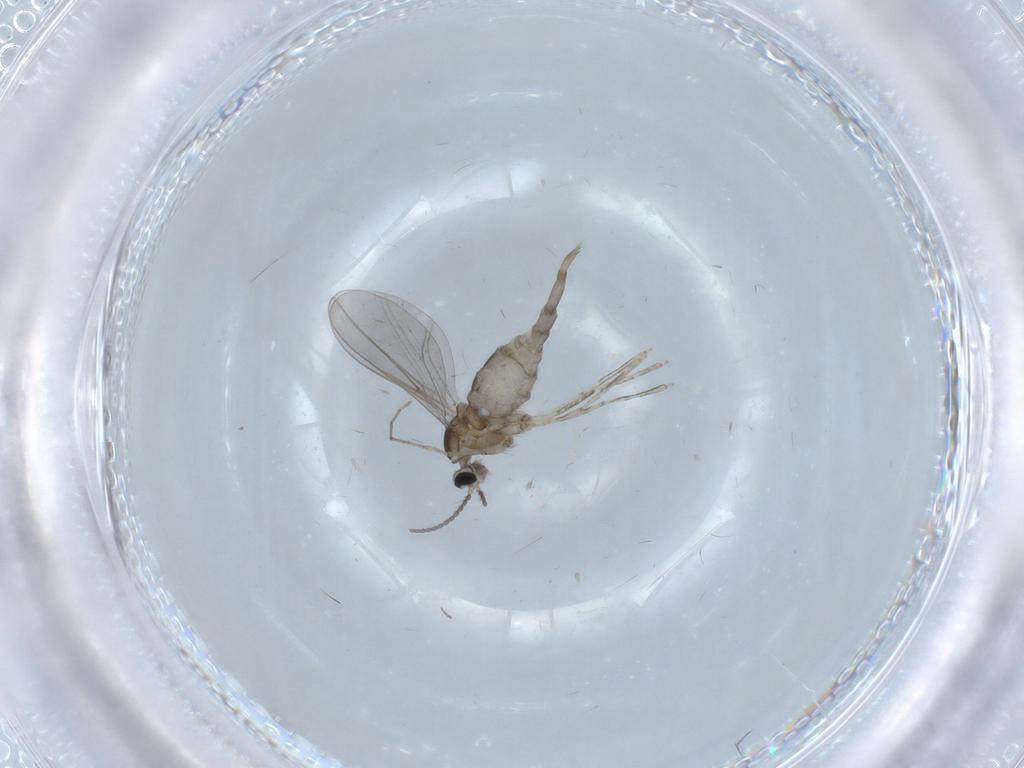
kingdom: Animalia
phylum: Arthropoda
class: Insecta
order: Diptera
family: Cecidomyiidae
